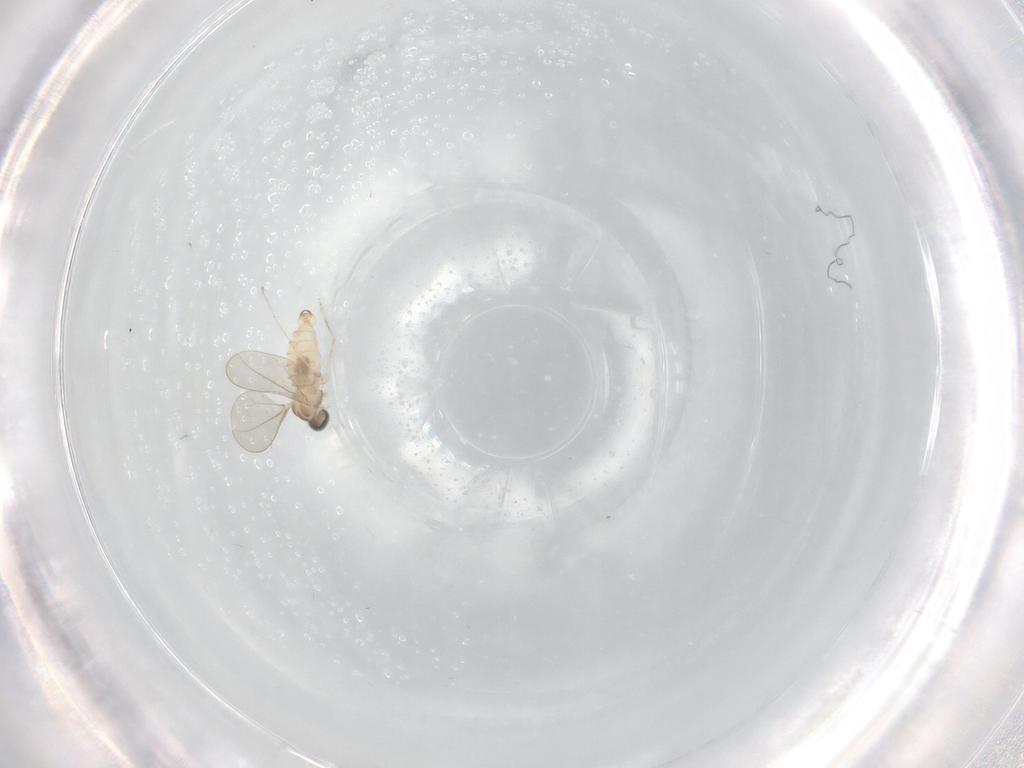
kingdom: Animalia
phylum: Arthropoda
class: Insecta
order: Diptera
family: Cecidomyiidae
